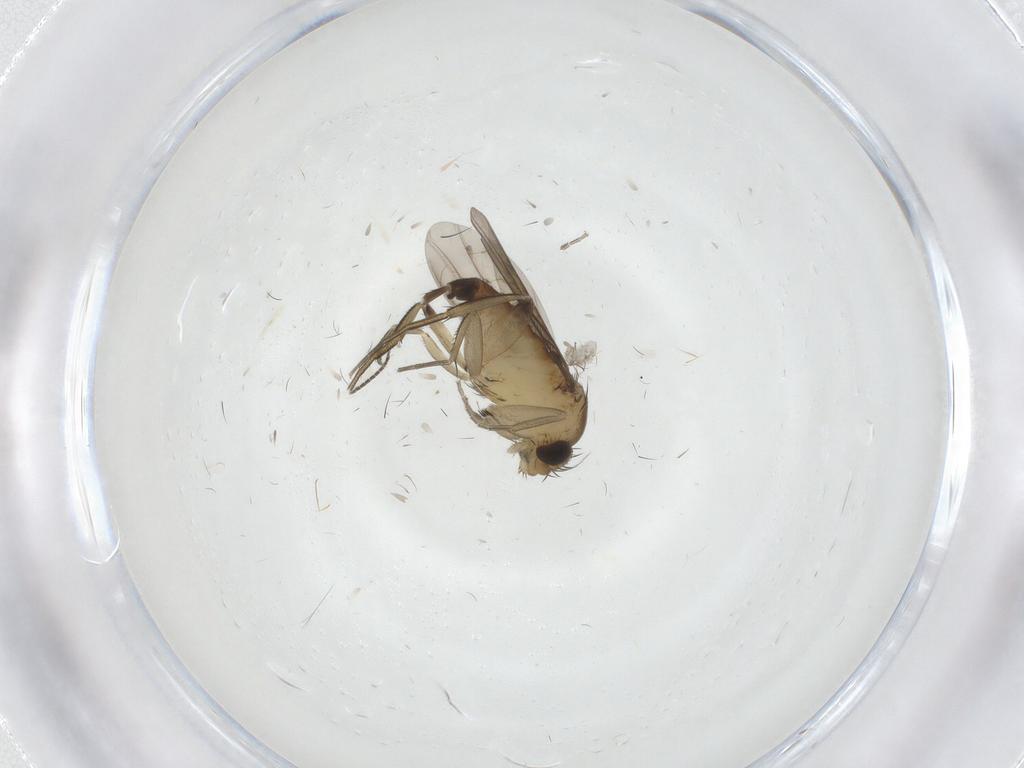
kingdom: Animalia
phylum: Arthropoda
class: Insecta
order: Diptera
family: Phoridae
